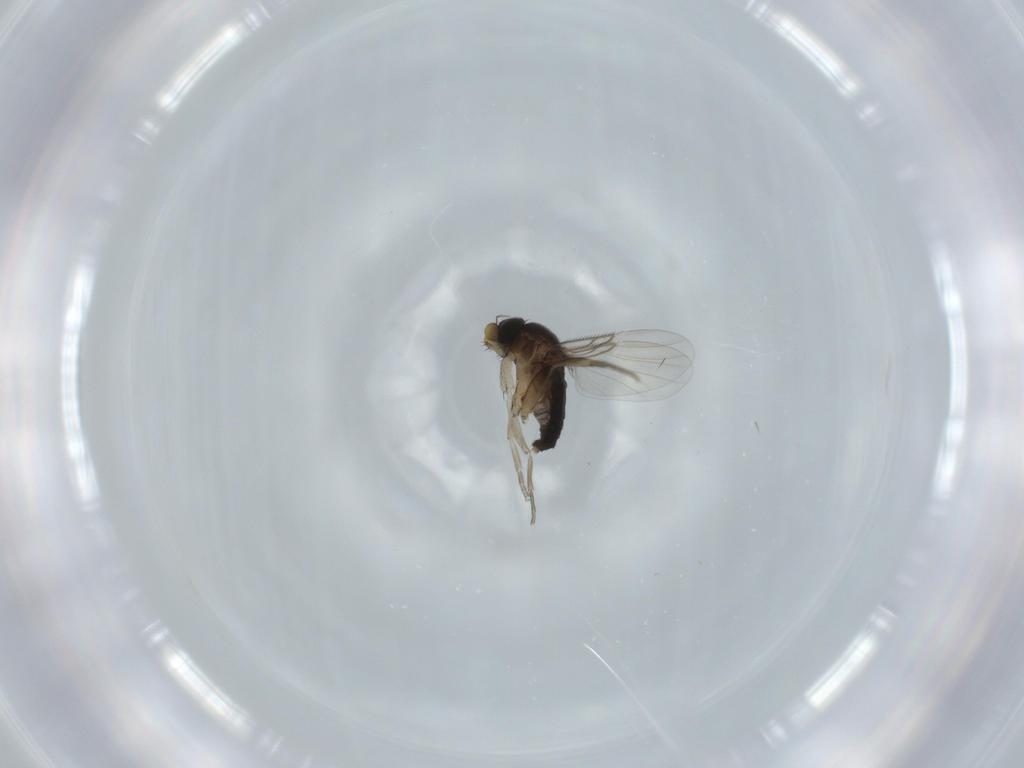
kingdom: Animalia
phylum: Arthropoda
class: Insecta
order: Diptera
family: Phoridae
